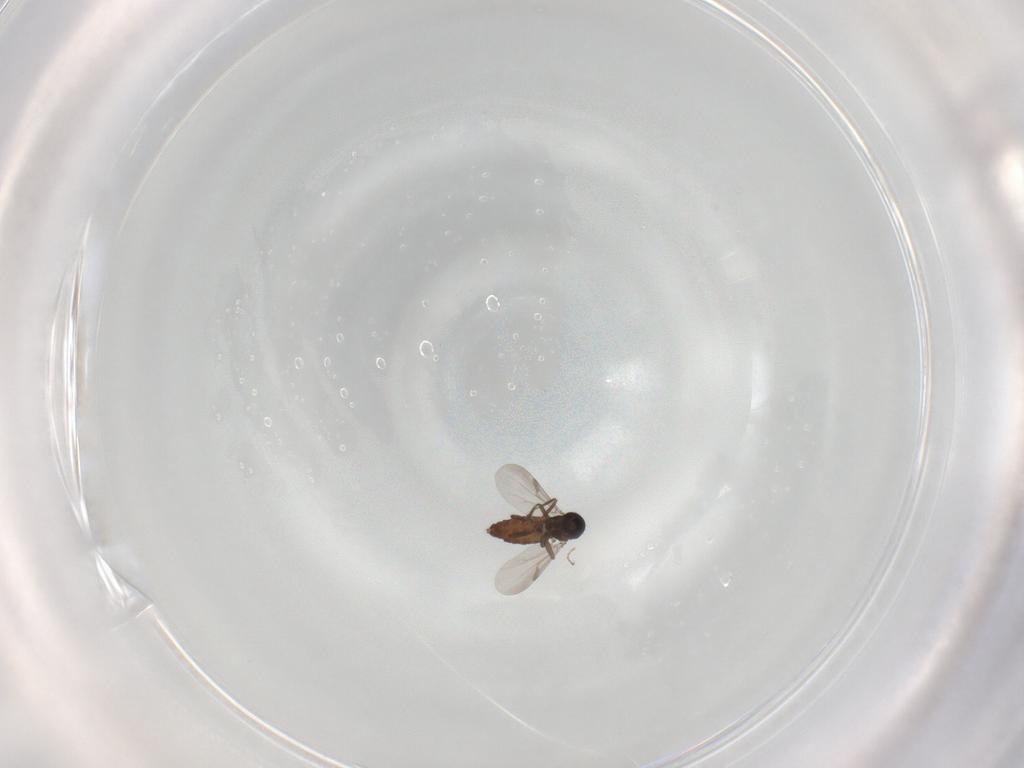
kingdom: Animalia
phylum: Arthropoda
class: Insecta
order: Diptera
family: Ceratopogonidae
